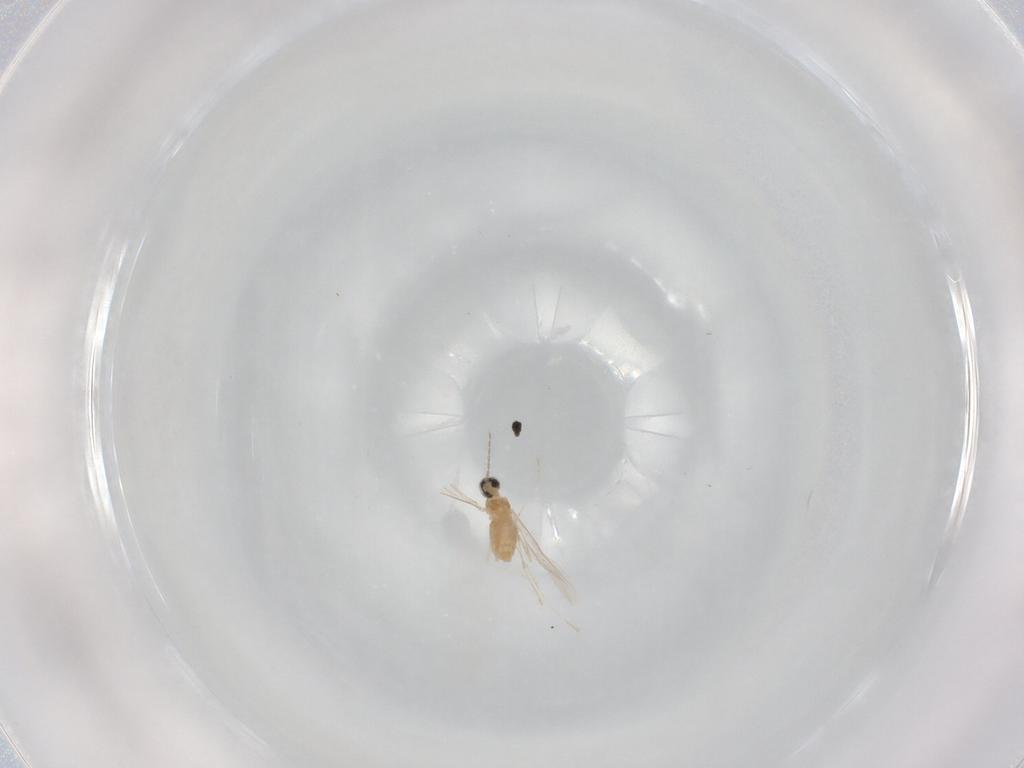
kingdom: Animalia
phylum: Arthropoda
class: Insecta
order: Diptera
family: Cecidomyiidae
